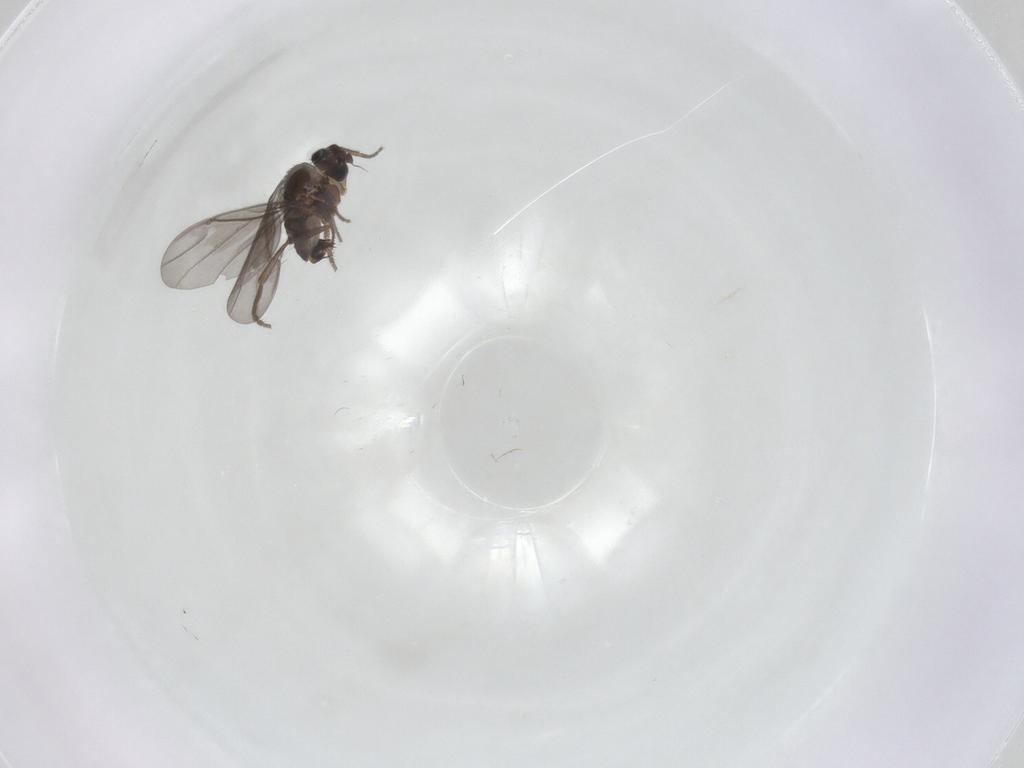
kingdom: Animalia
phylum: Arthropoda
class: Insecta
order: Diptera
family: Phoridae
